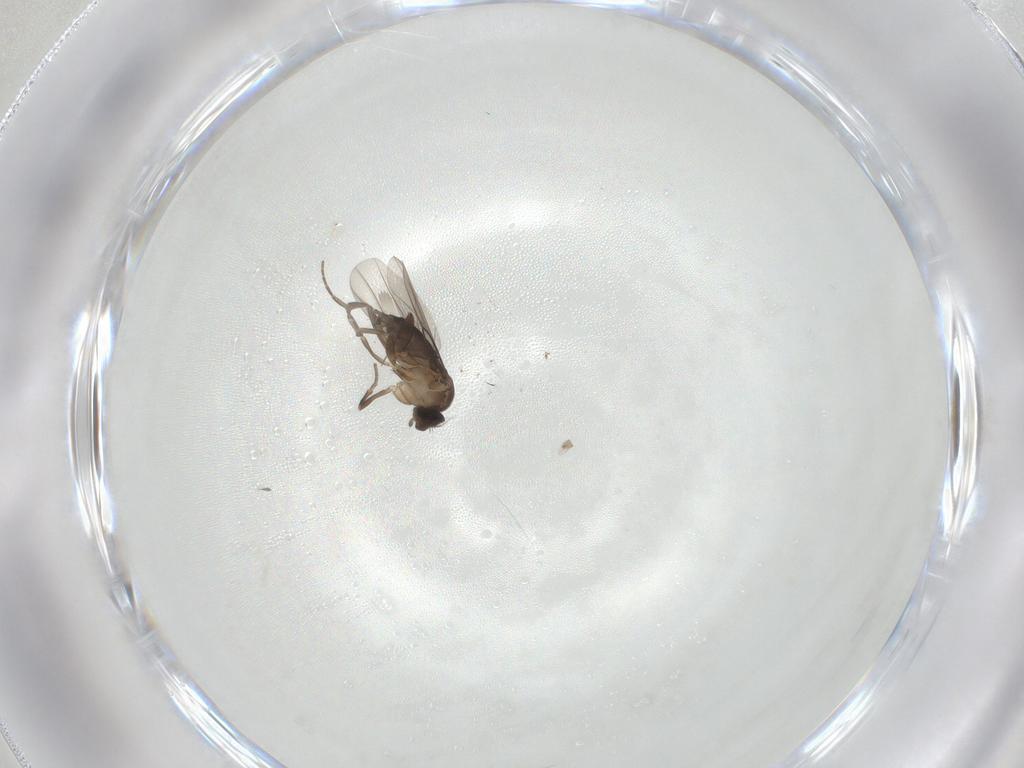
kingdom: Animalia
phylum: Arthropoda
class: Insecta
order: Diptera
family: Phoridae
